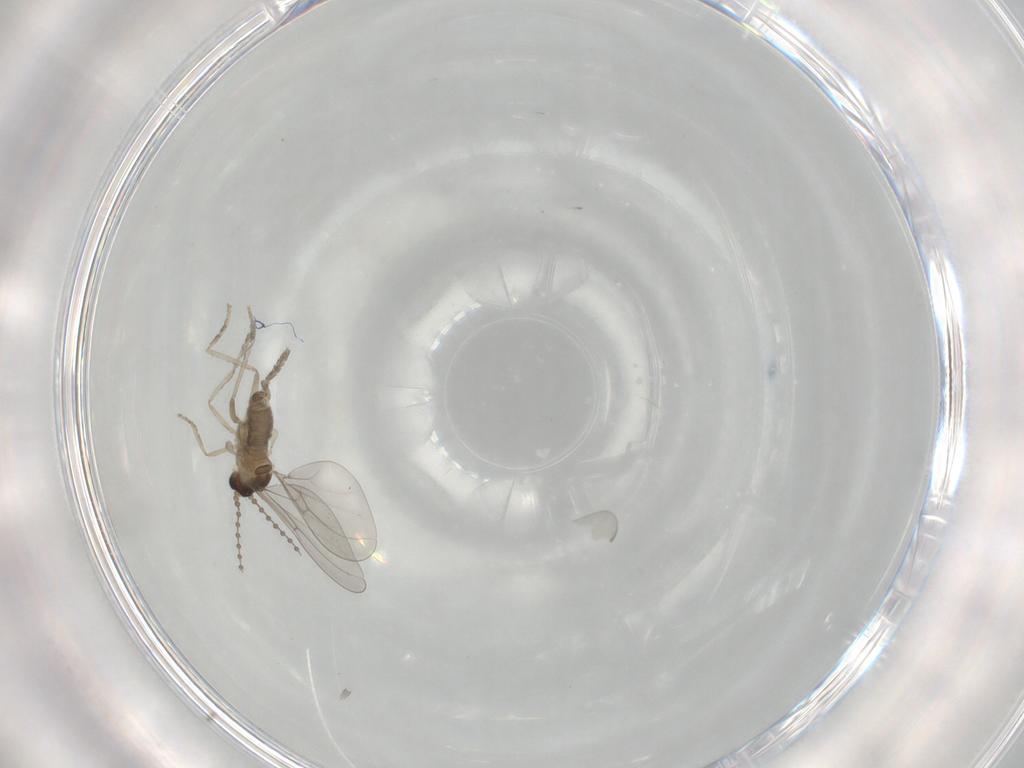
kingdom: Animalia
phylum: Arthropoda
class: Insecta
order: Diptera
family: Cecidomyiidae
